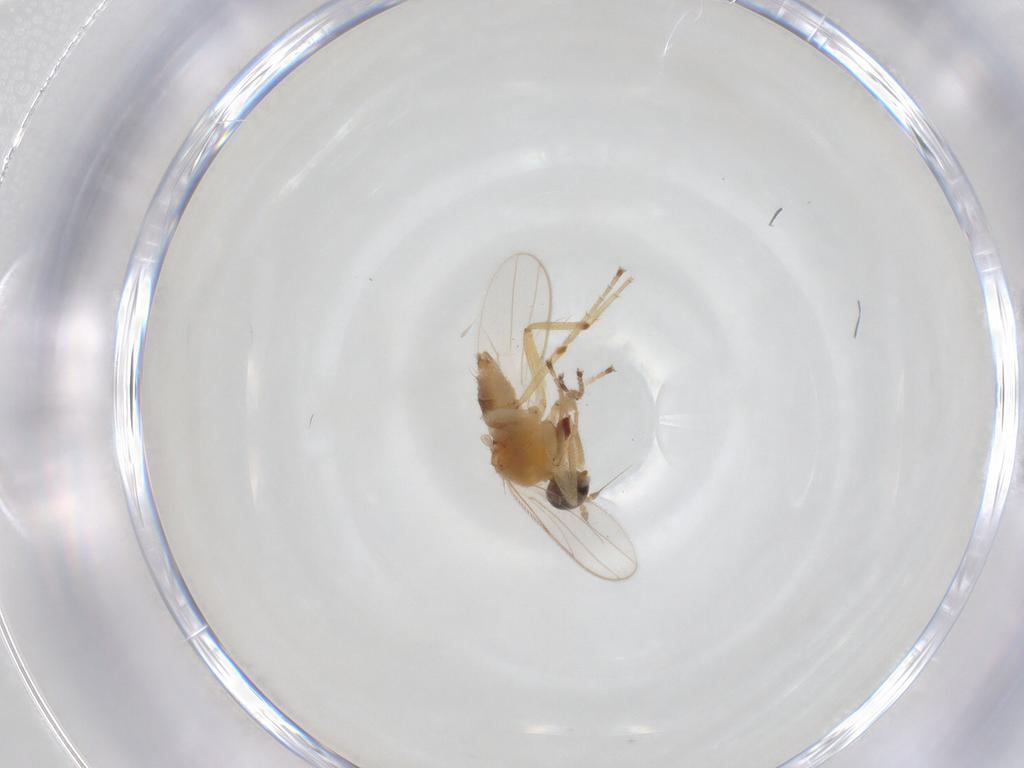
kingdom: Animalia
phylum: Arthropoda
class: Insecta
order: Diptera
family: Hybotidae
